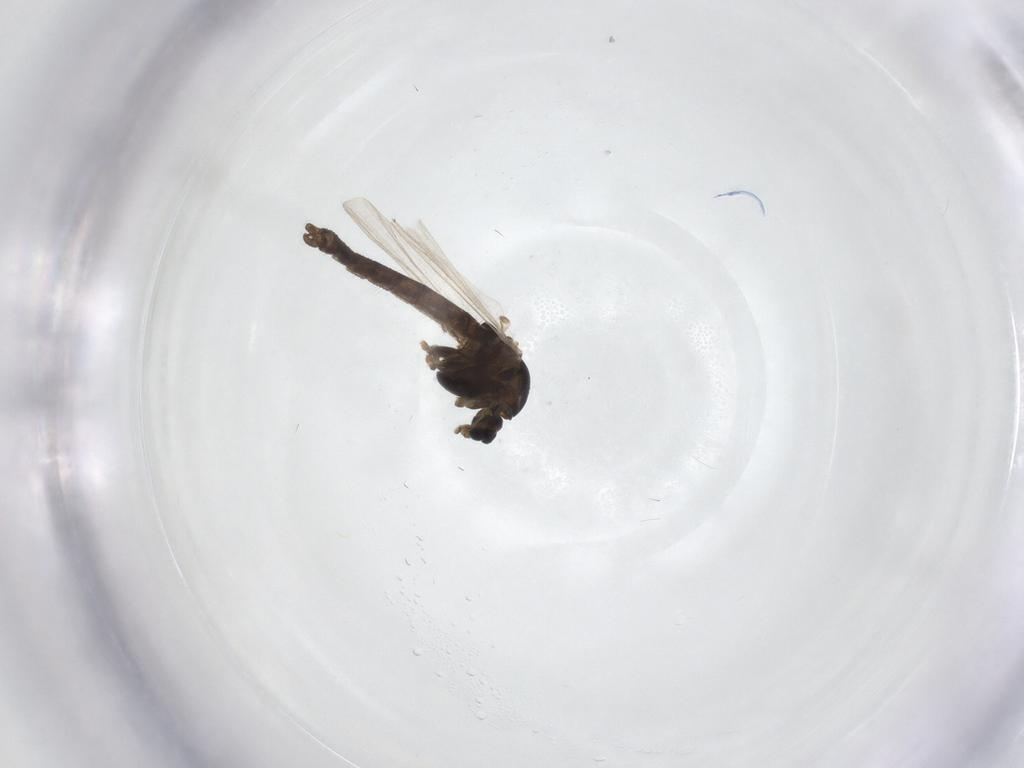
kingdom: Animalia
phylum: Arthropoda
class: Insecta
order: Diptera
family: Chironomidae
